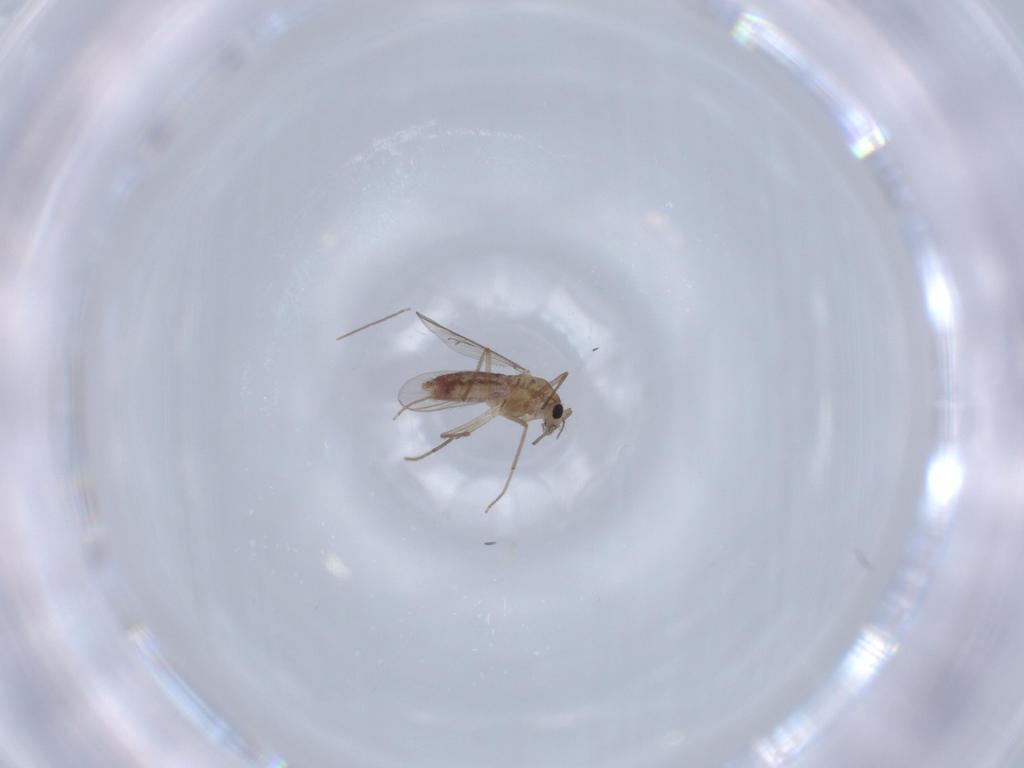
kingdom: Animalia
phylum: Arthropoda
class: Insecta
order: Diptera
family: Chironomidae
